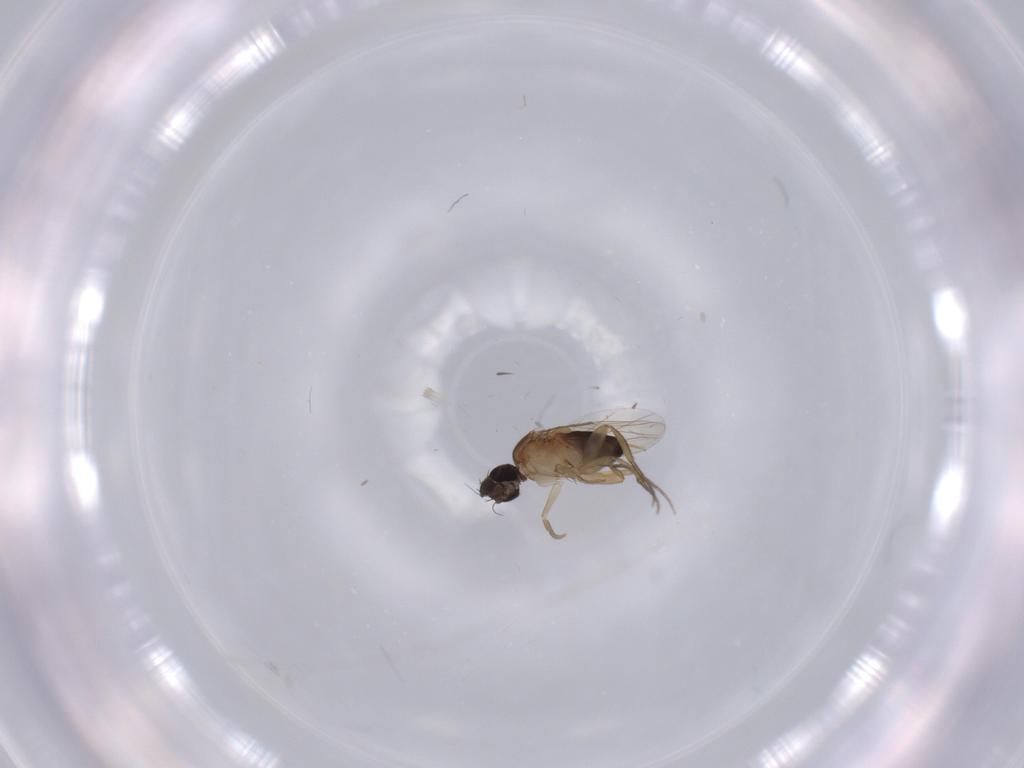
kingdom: Animalia
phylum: Arthropoda
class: Insecta
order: Diptera
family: Phoridae
